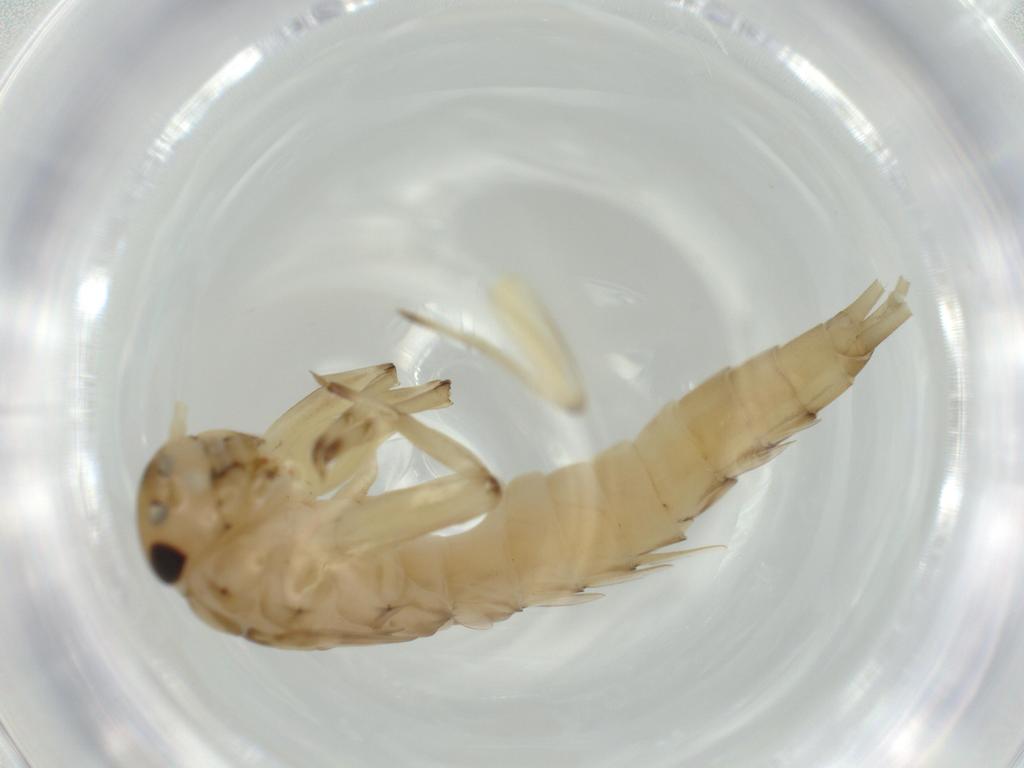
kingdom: Animalia
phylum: Arthropoda
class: Insecta
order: Ephemeroptera
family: Baetidae
